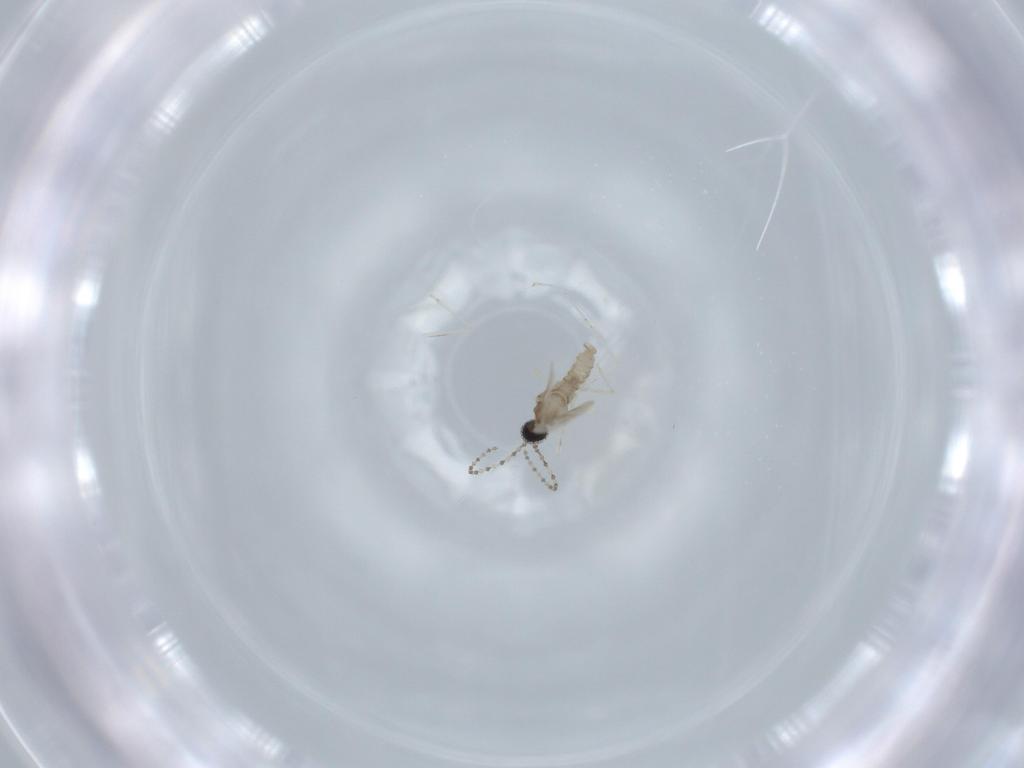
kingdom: Animalia
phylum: Arthropoda
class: Insecta
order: Diptera
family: Cecidomyiidae
